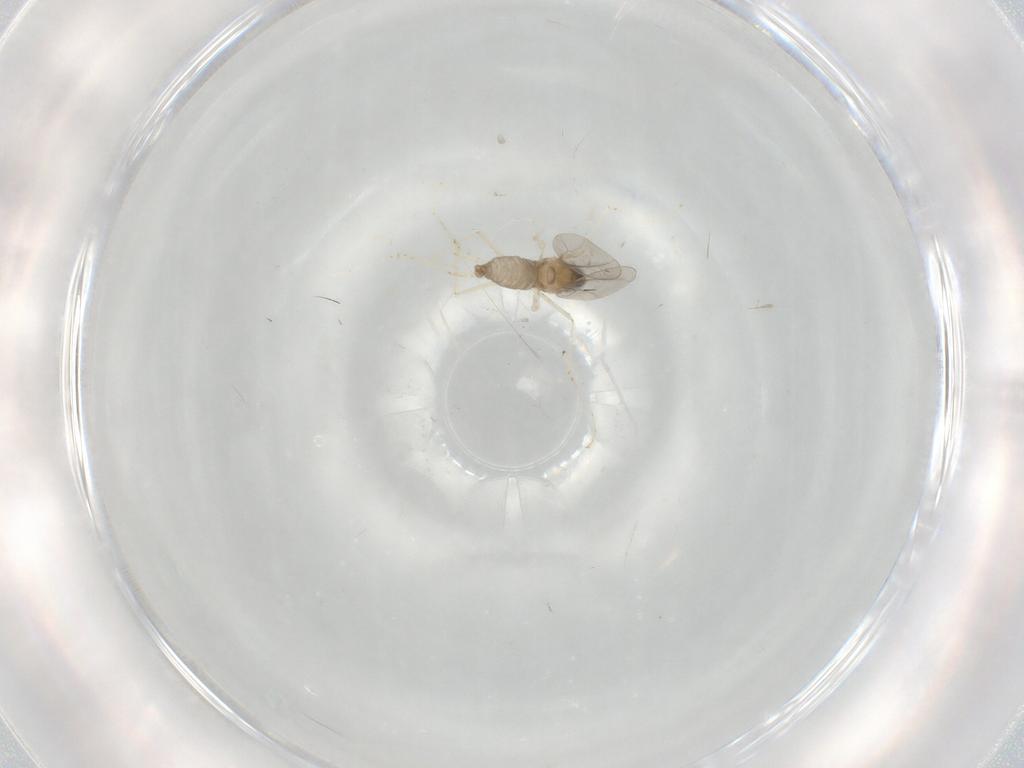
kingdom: Animalia
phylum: Arthropoda
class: Insecta
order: Diptera
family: Cecidomyiidae
